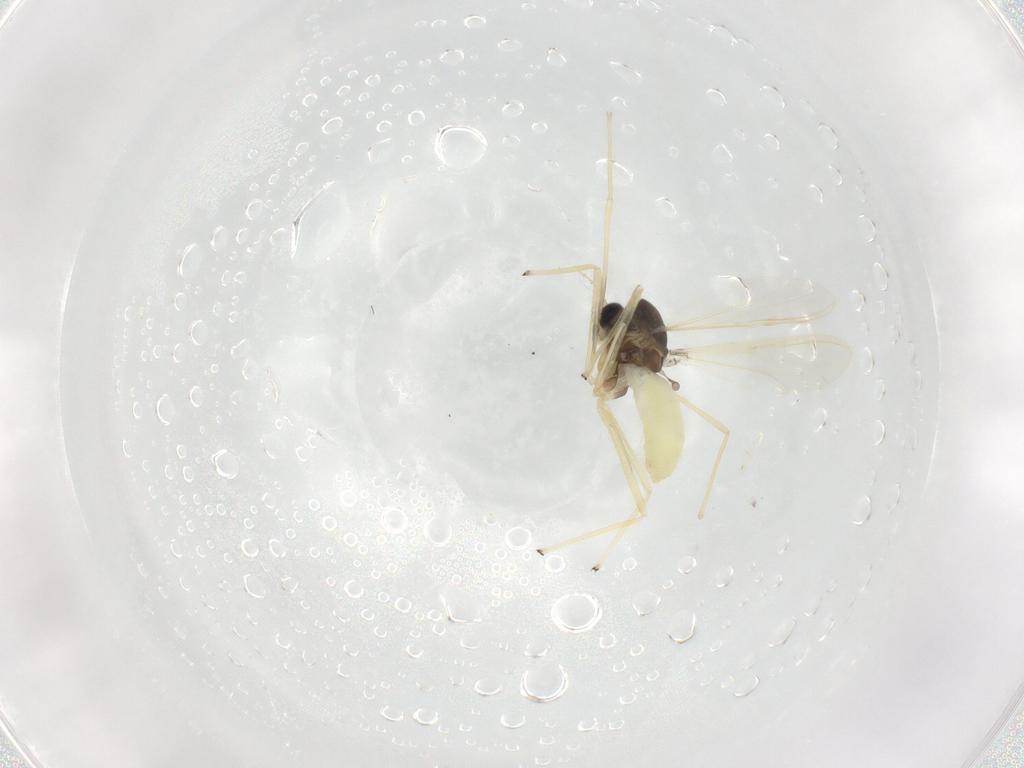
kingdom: Animalia
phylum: Arthropoda
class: Insecta
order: Diptera
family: Chironomidae
